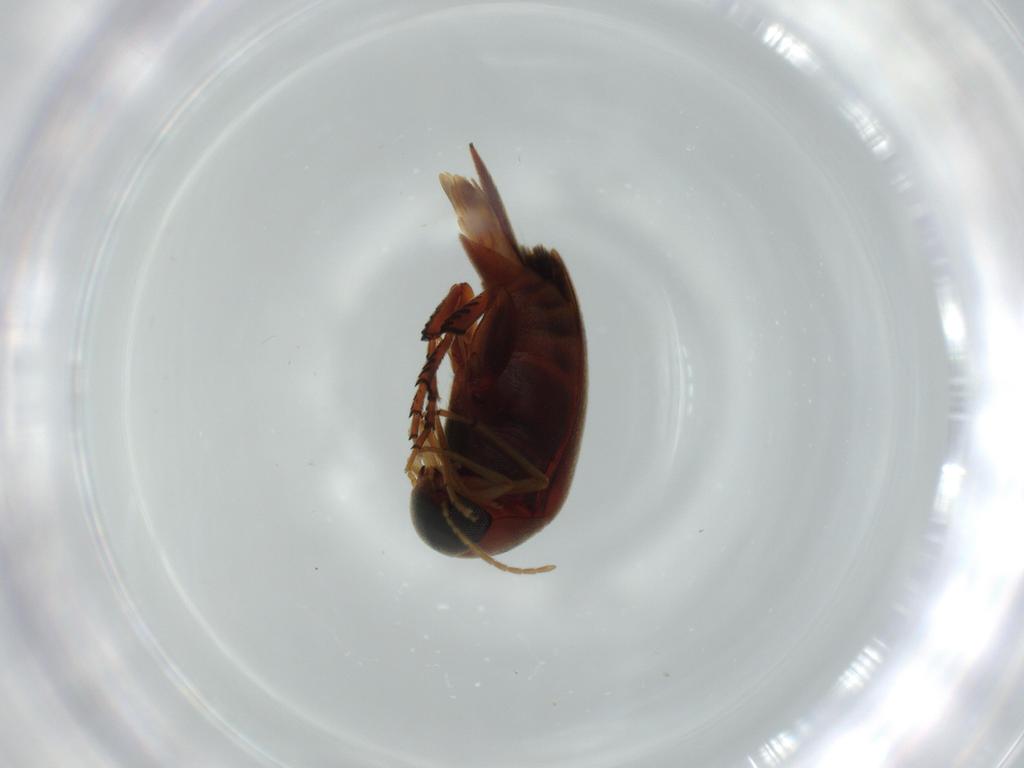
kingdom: Animalia
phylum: Arthropoda
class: Insecta
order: Coleoptera
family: Mordellidae
